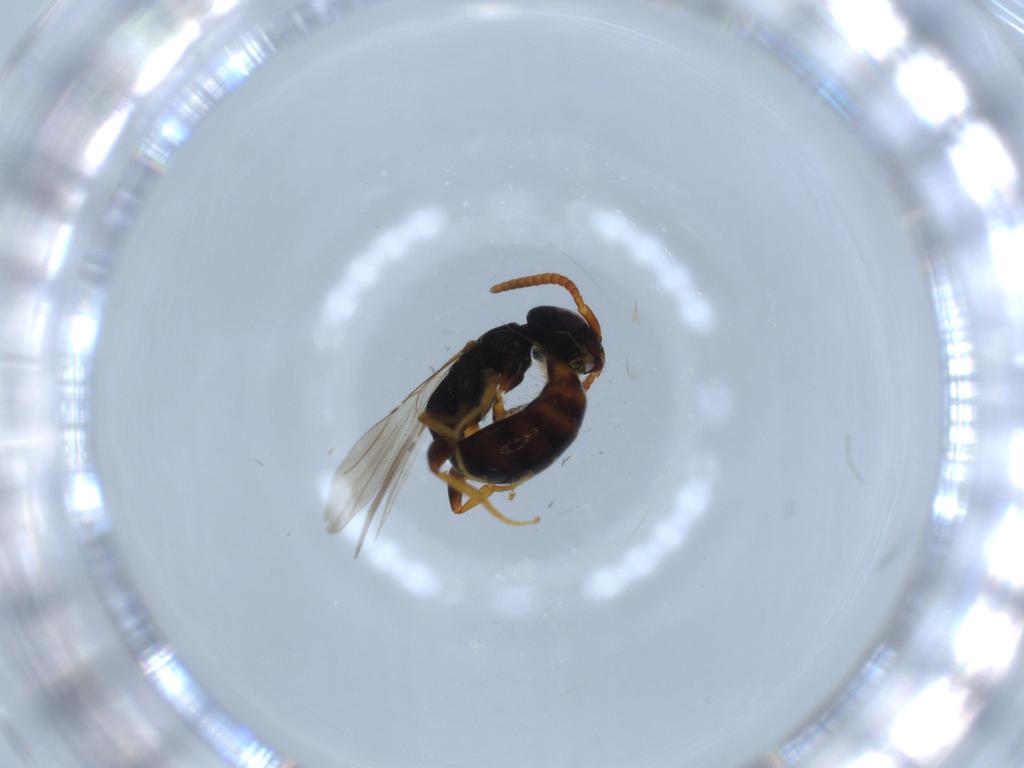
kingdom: Animalia
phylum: Arthropoda
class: Insecta
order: Hymenoptera
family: Bethylidae
